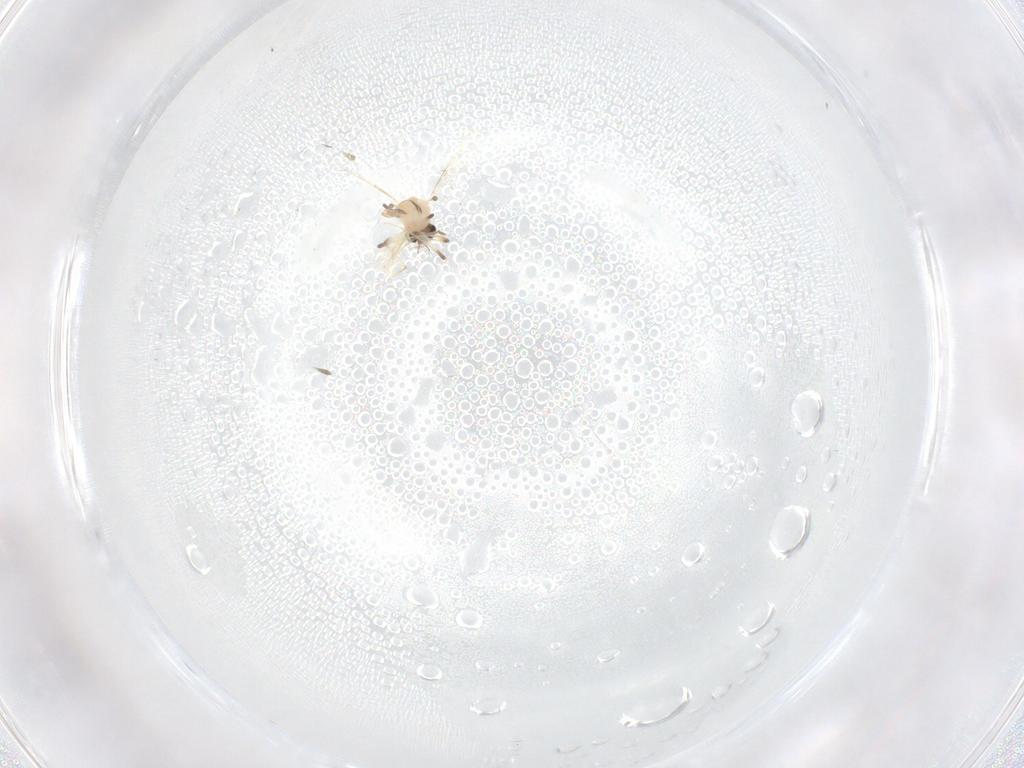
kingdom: Animalia
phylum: Arthropoda
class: Insecta
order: Diptera
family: Chironomidae
